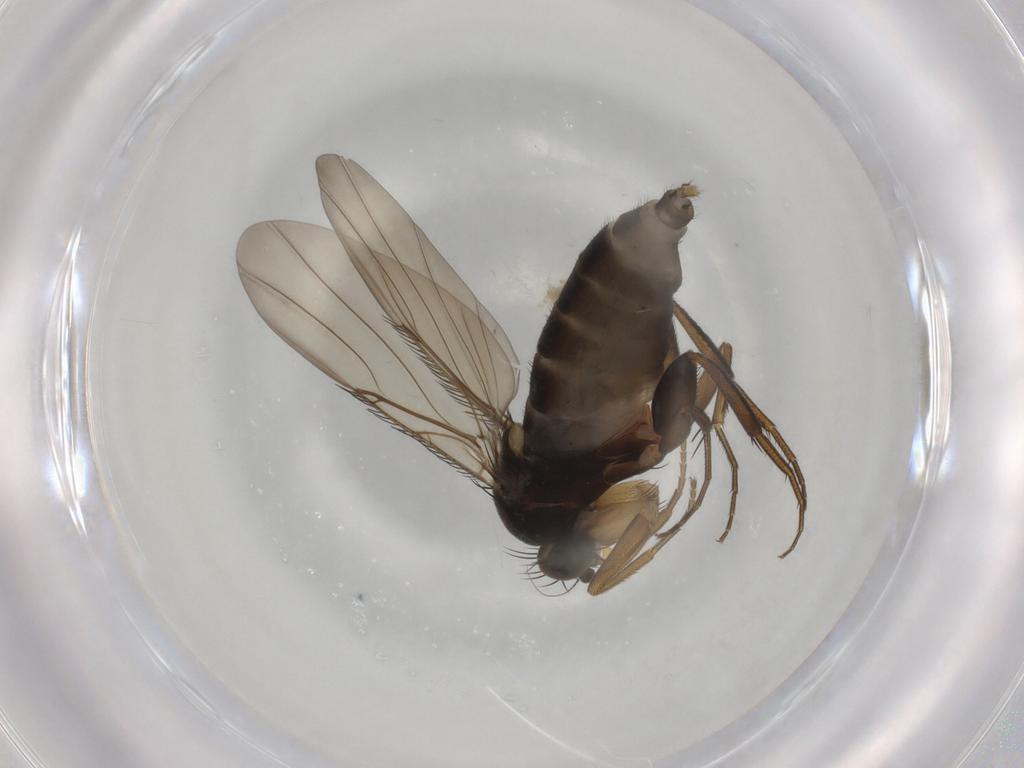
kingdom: Animalia
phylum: Arthropoda
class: Insecta
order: Diptera
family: Phoridae
